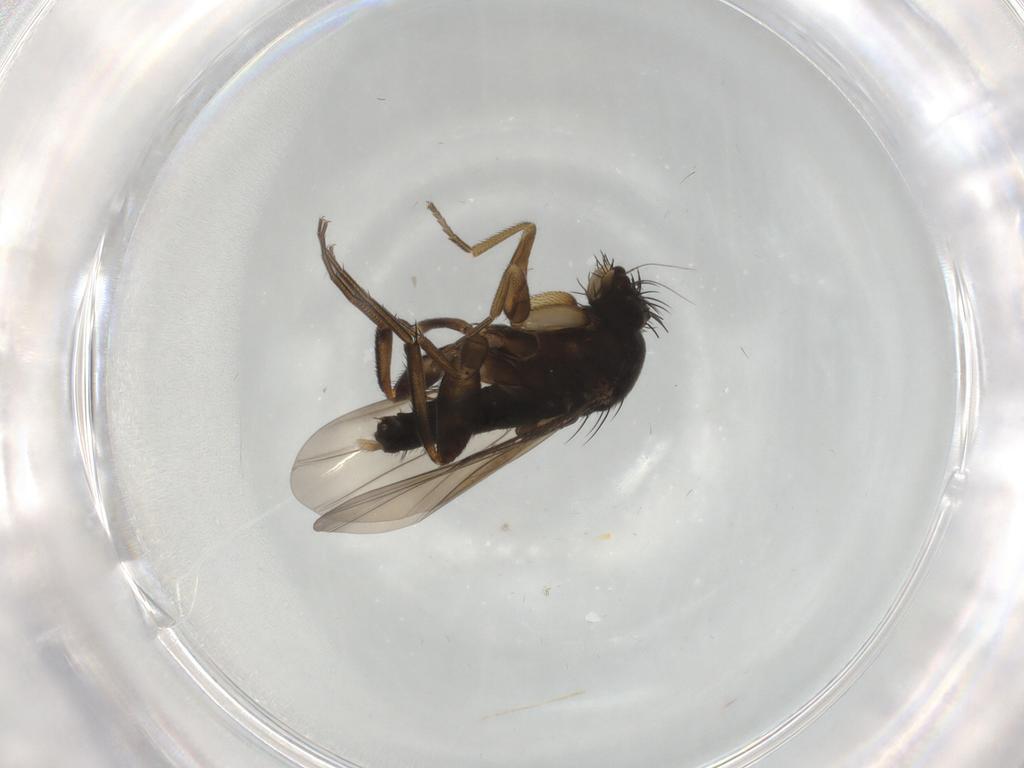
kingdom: Animalia
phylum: Arthropoda
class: Insecta
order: Diptera
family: Phoridae
